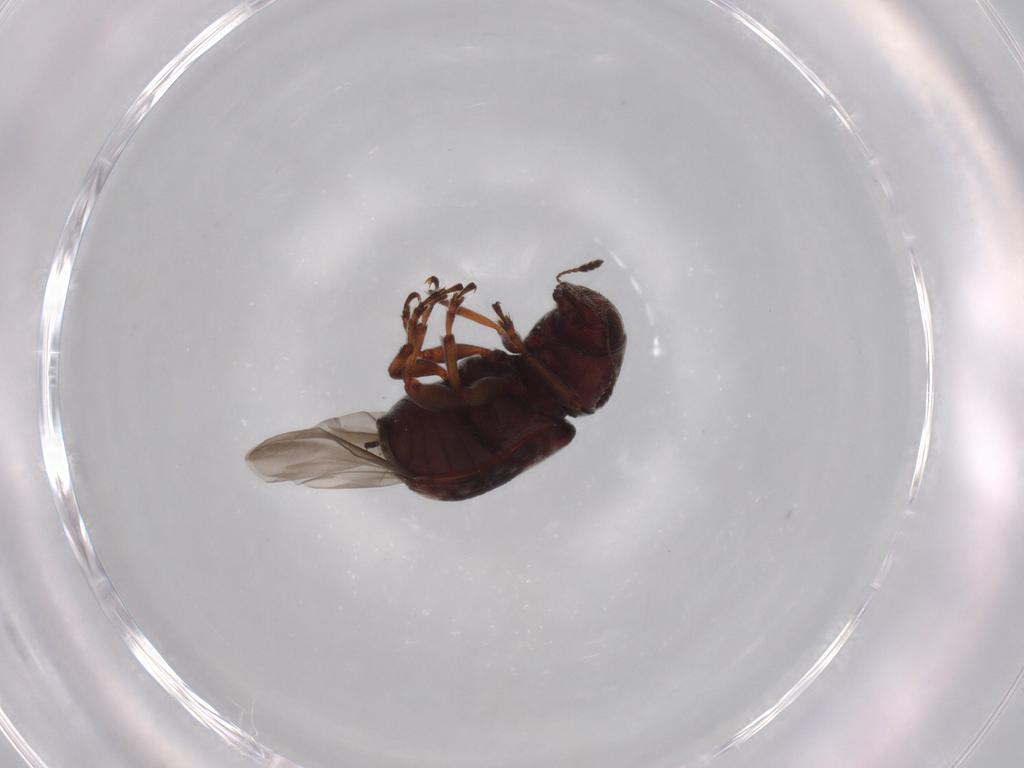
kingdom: Animalia
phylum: Arthropoda
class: Insecta
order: Coleoptera
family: Anthribidae
